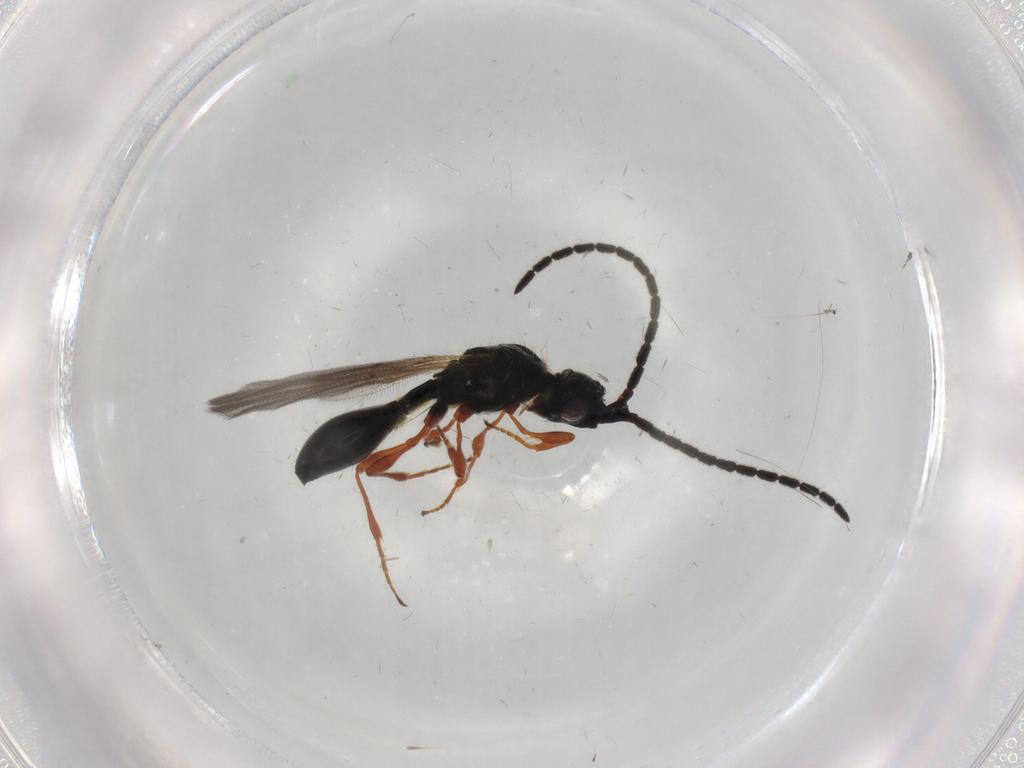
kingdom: Animalia
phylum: Arthropoda
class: Insecta
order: Hymenoptera
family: Diapriidae
